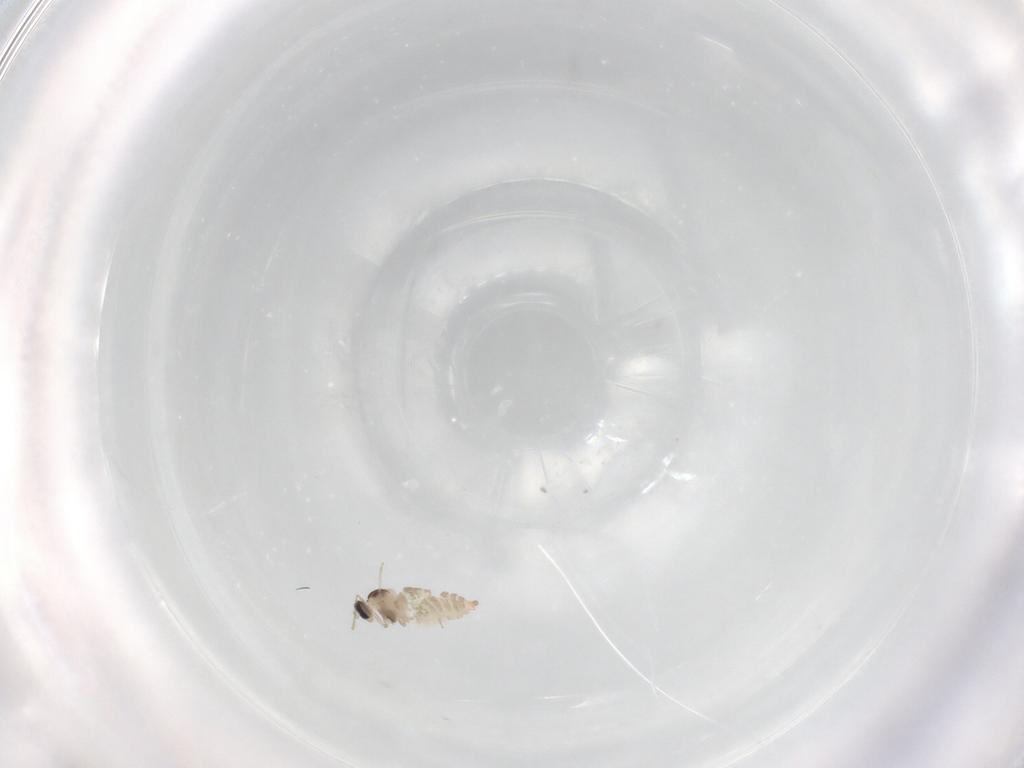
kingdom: Animalia
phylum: Arthropoda
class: Insecta
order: Diptera
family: Cecidomyiidae
